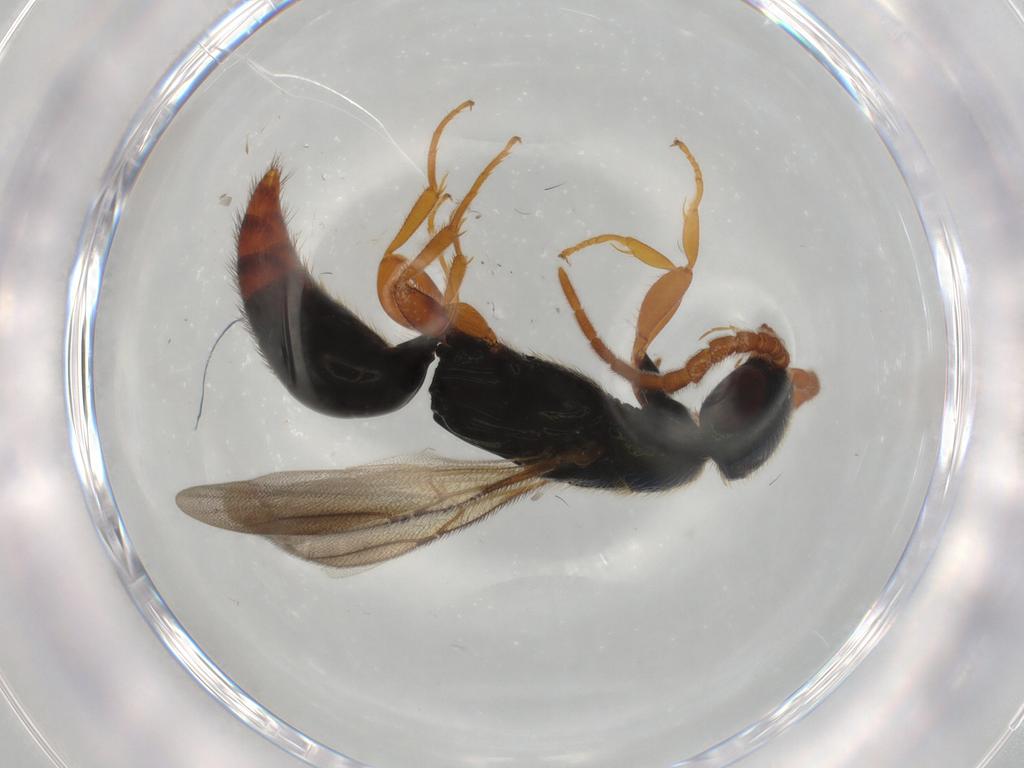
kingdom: Animalia
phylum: Arthropoda
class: Insecta
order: Hymenoptera
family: Bethylidae
